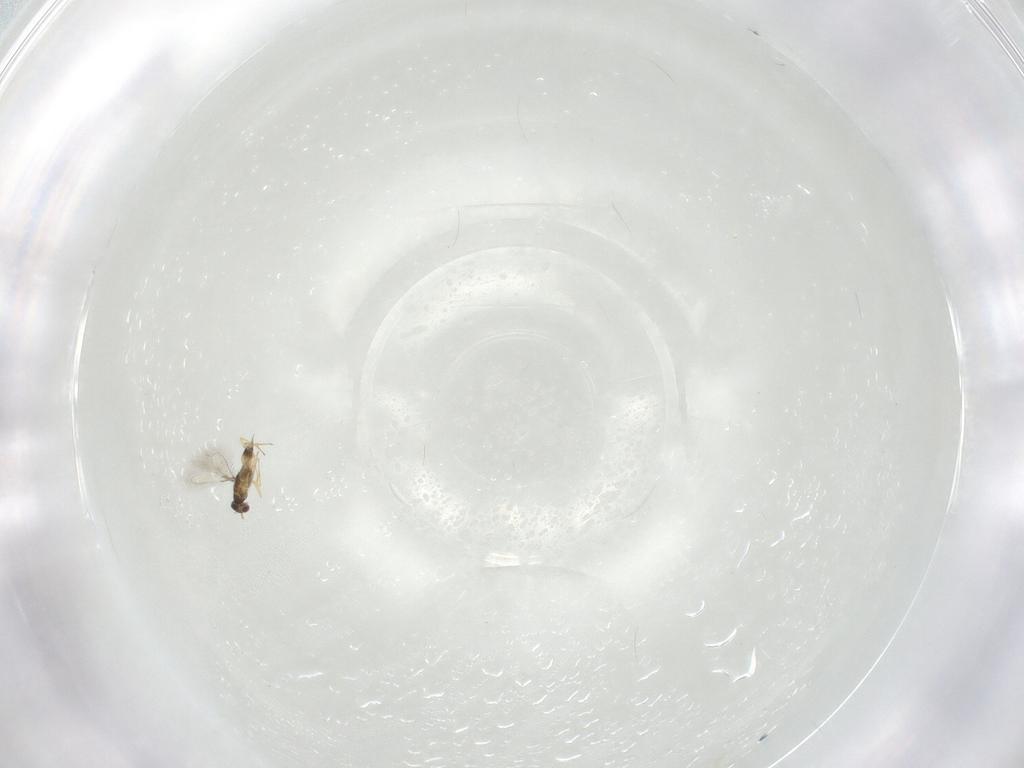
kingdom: Animalia
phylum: Arthropoda
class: Insecta
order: Hymenoptera
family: Mymaridae
